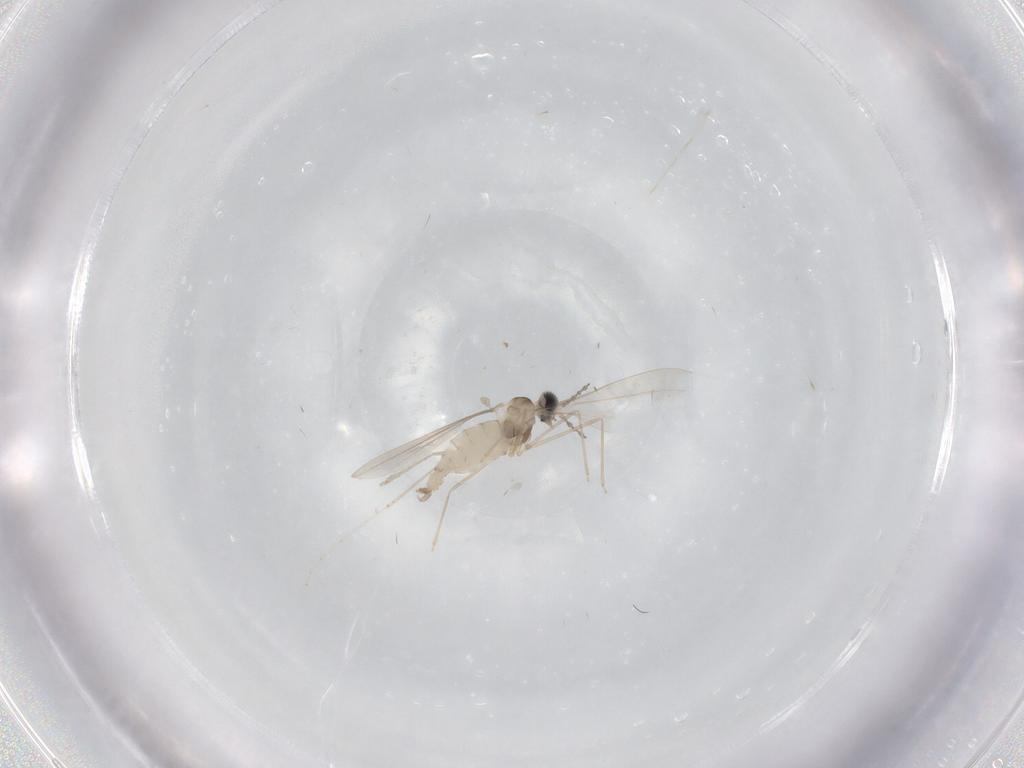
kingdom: Animalia
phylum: Arthropoda
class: Insecta
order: Diptera
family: Cecidomyiidae
